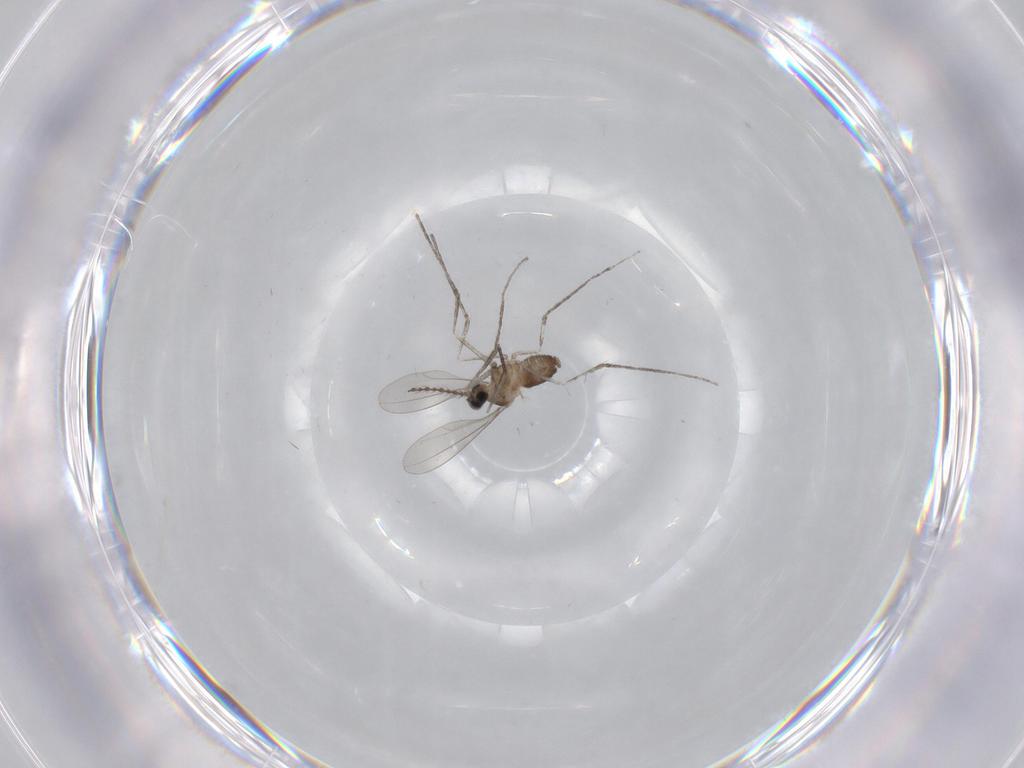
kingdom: Animalia
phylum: Arthropoda
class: Insecta
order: Diptera
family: Cecidomyiidae
